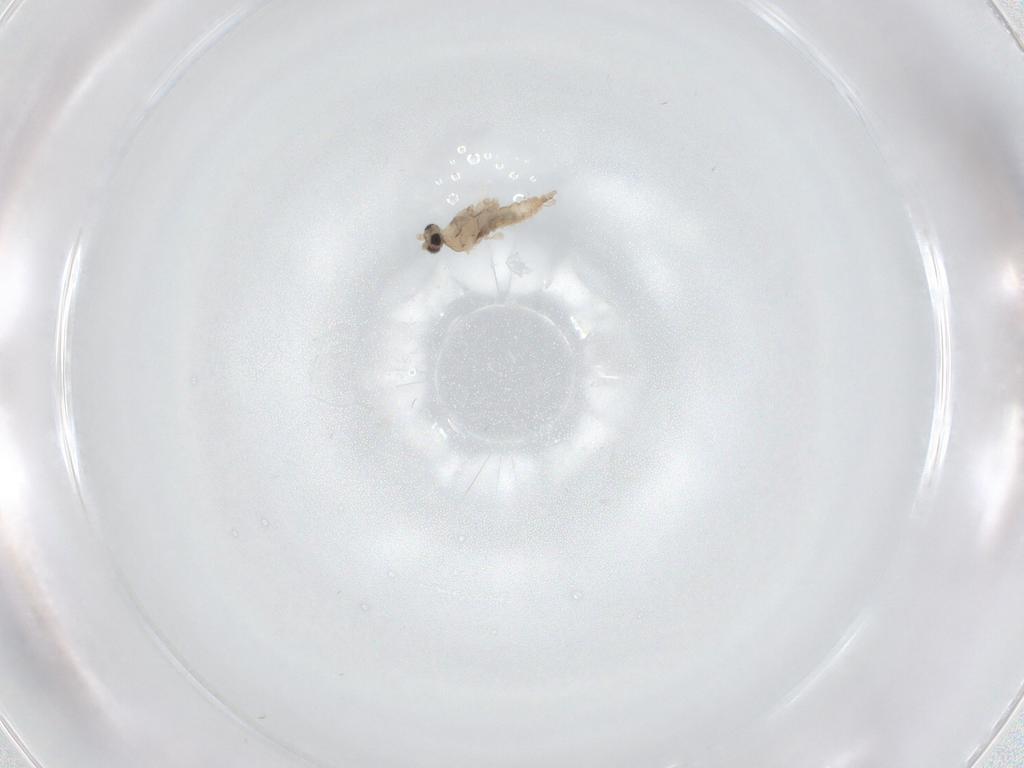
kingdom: Animalia
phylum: Arthropoda
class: Insecta
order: Diptera
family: Cecidomyiidae
